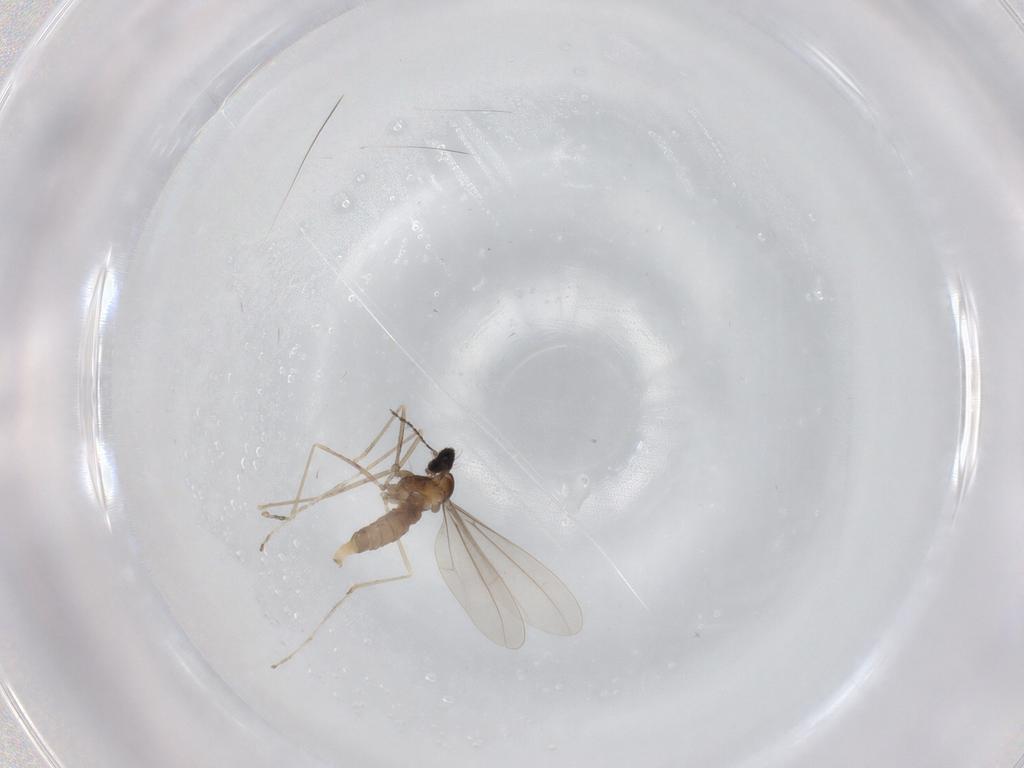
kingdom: Animalia
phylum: Arthropoda
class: Insecta
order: Diptera
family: Cecidomyiidae
